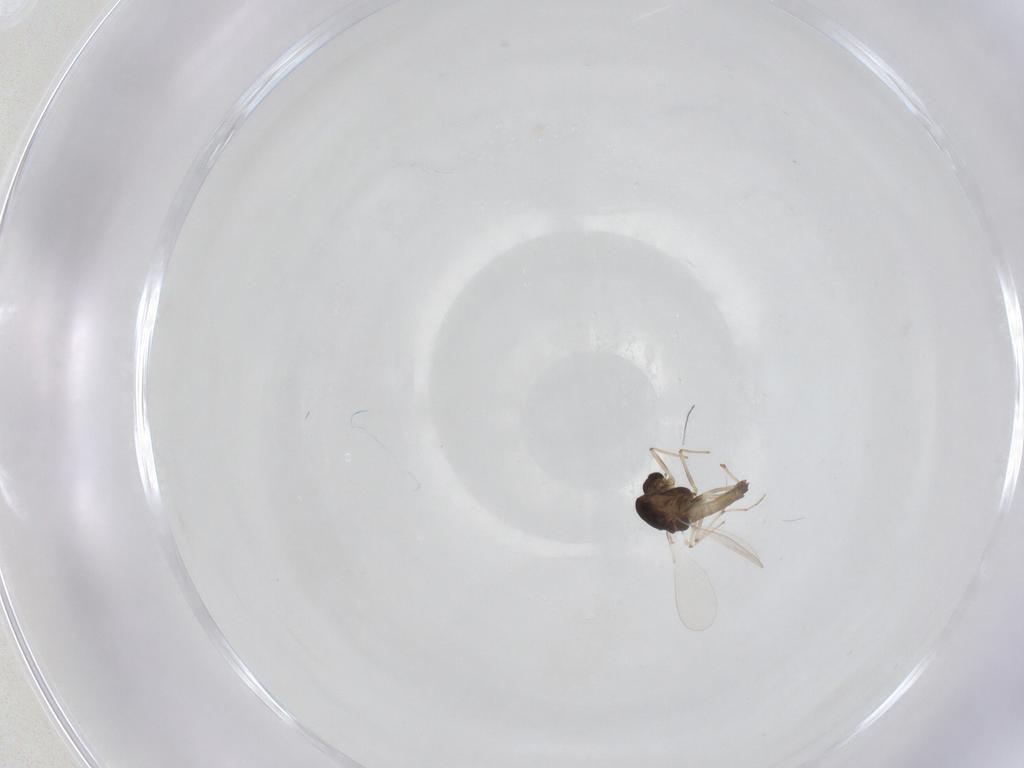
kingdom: Animalia
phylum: Arthropoda
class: Insecta
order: Diptera
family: Chironomidae
